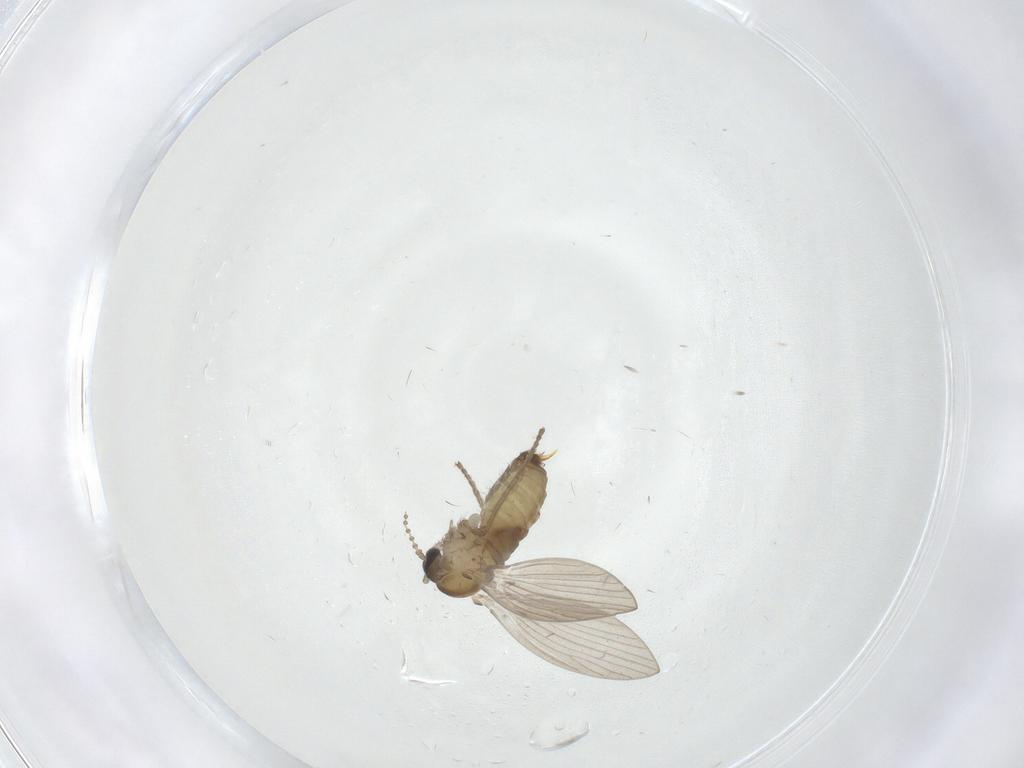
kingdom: Animalia
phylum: Arthropoda
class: Insecta
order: Diptera
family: Psychodidae
